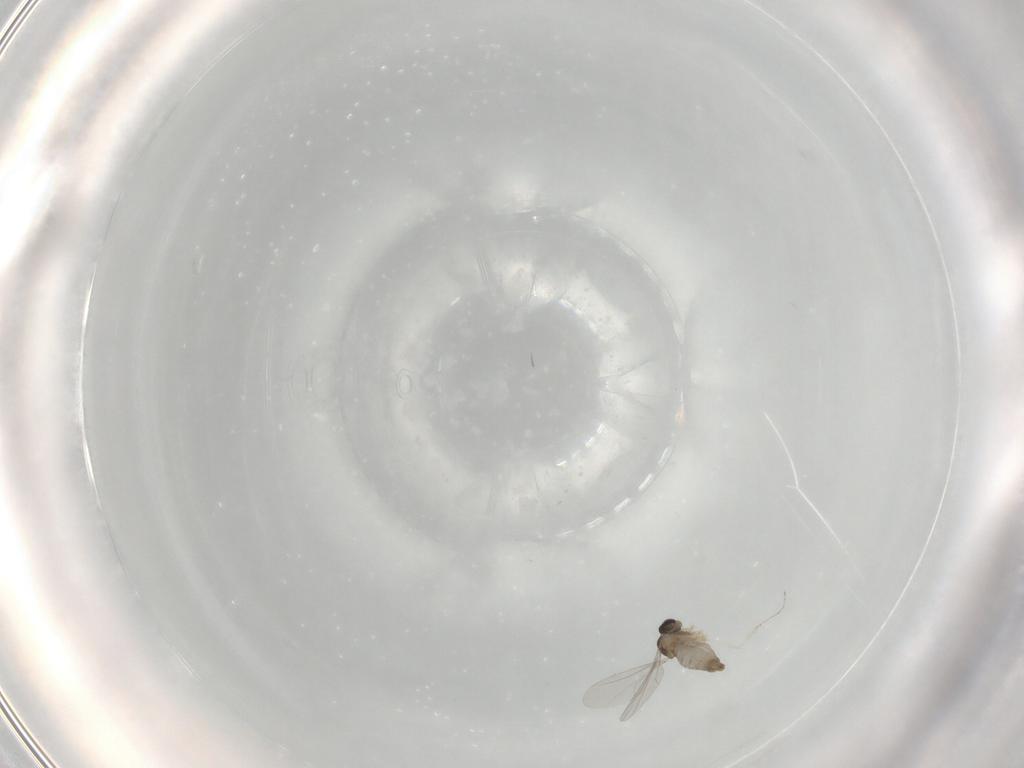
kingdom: Animalia
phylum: Arthropoda
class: Insecta
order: Diptera
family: Cecidomyiidae
